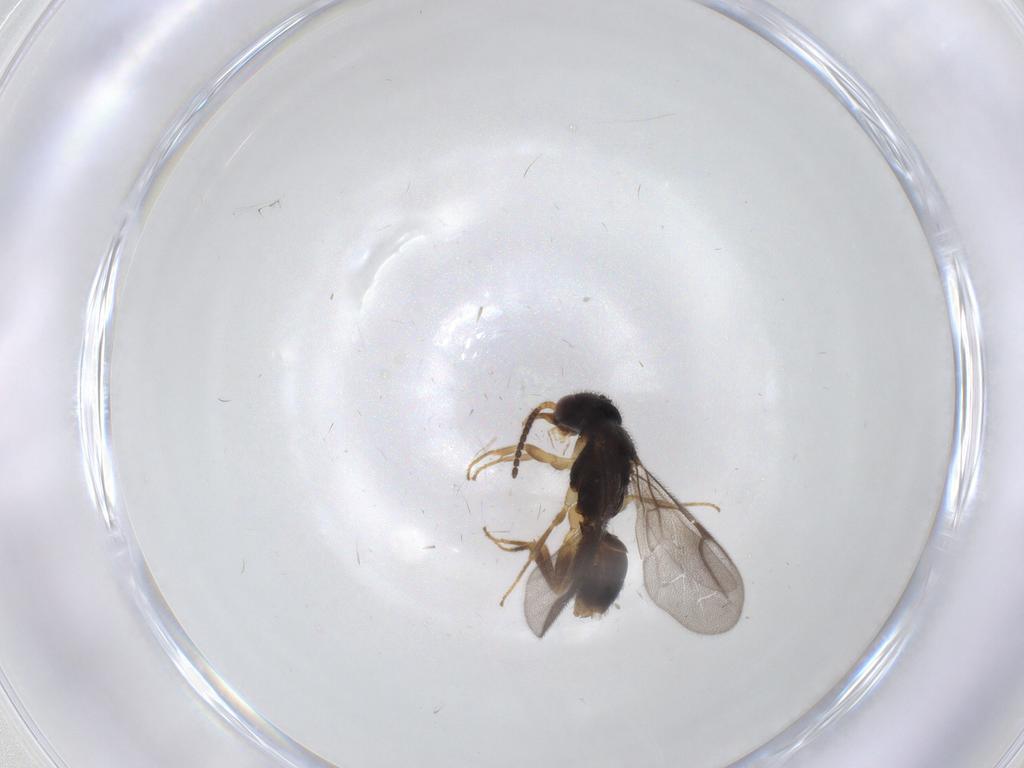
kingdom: Animalia
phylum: Arthropoda
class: Insecta
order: Hymenoptera
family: Bethylidae
